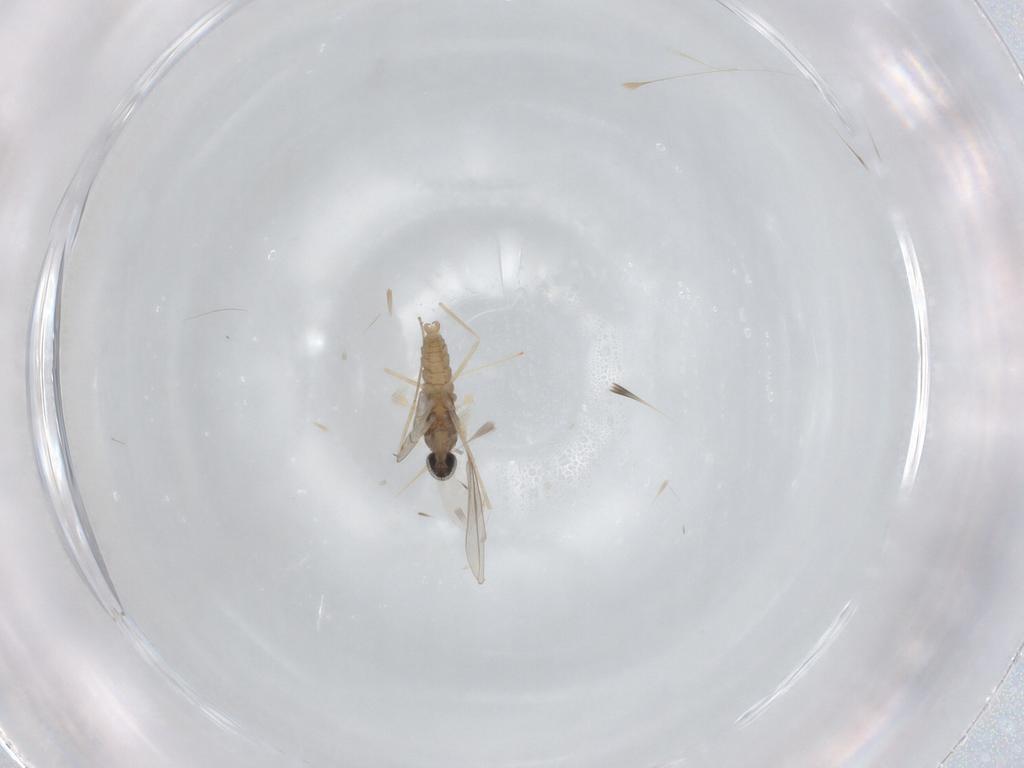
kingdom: Animalia
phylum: Arthropoda
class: Insecta
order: Diptera
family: Cecidomyiidae
